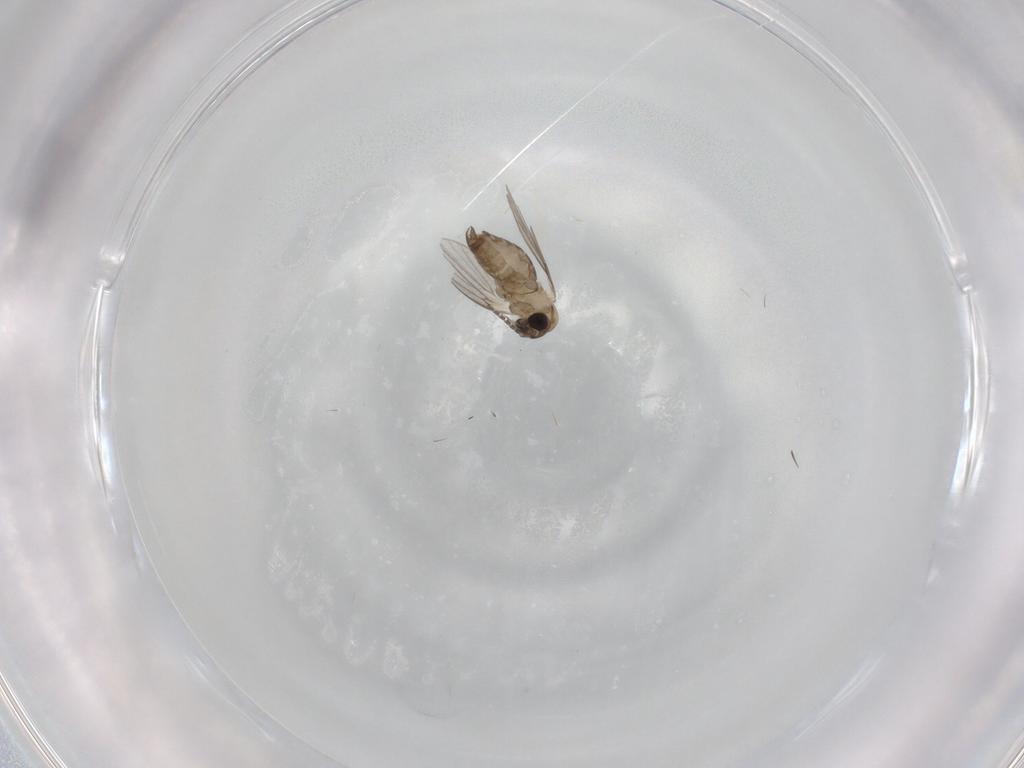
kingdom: Animalia
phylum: Arthropoda
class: Insecta
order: Diptera
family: Psychodidae
